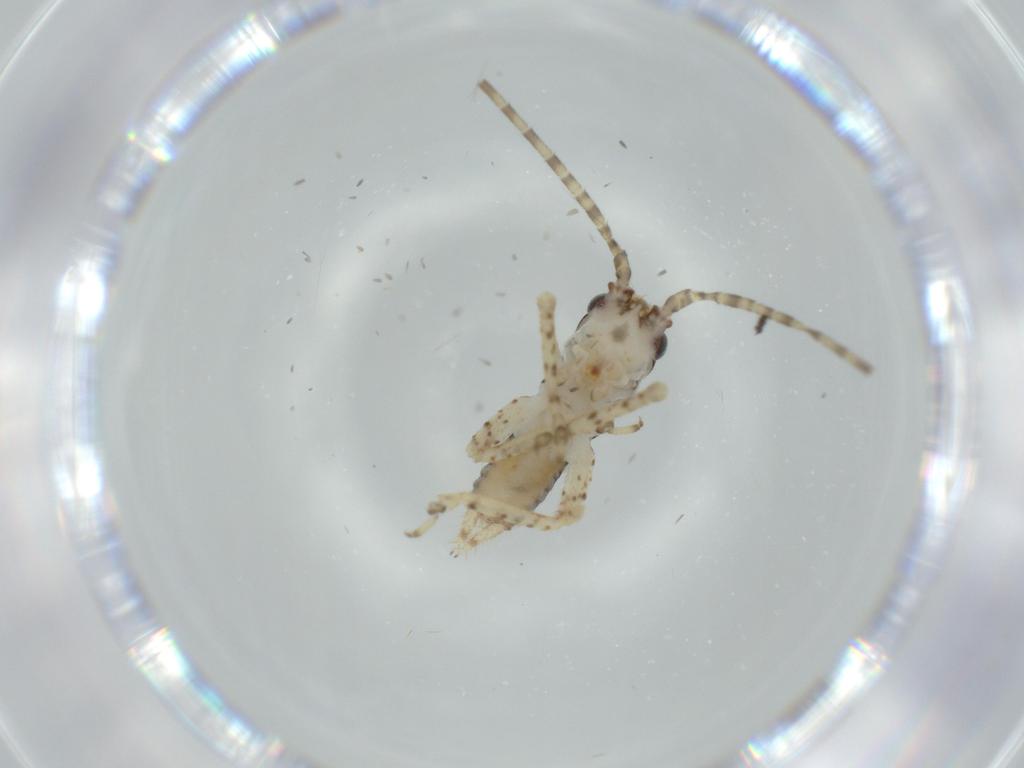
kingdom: Animalia
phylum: Arthropoda
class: Insecta
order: Orthoptera
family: Gryllidae
